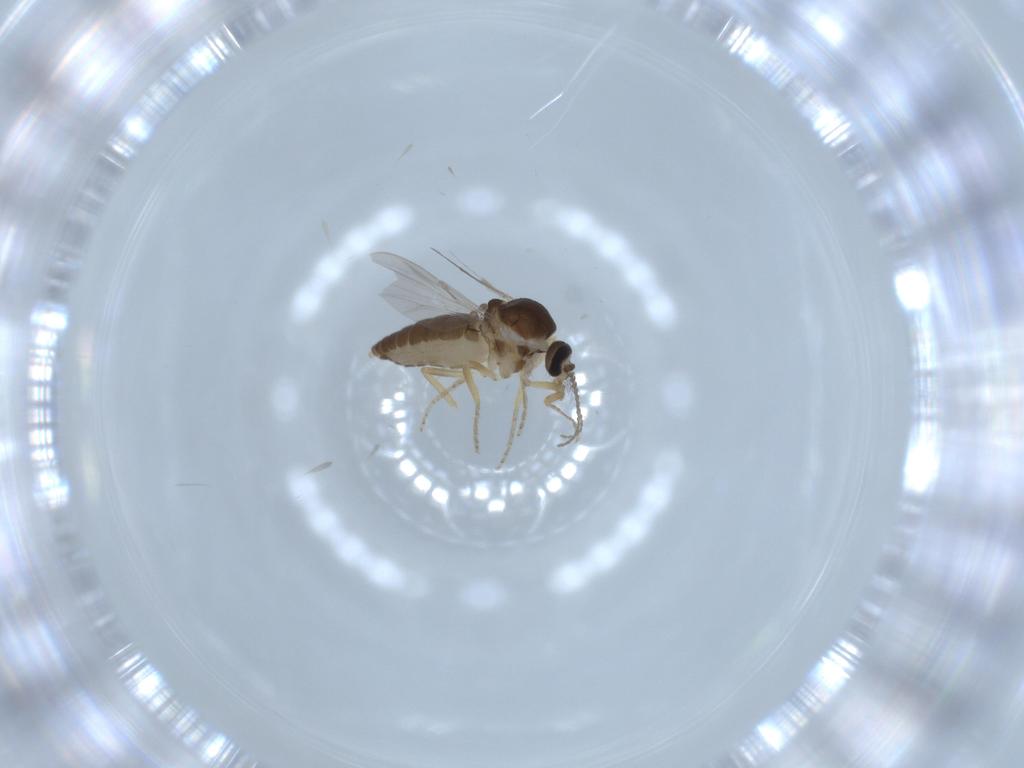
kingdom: Animalia
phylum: Arthropoda
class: Insecta
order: Diptera
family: Ceratopogonidae
